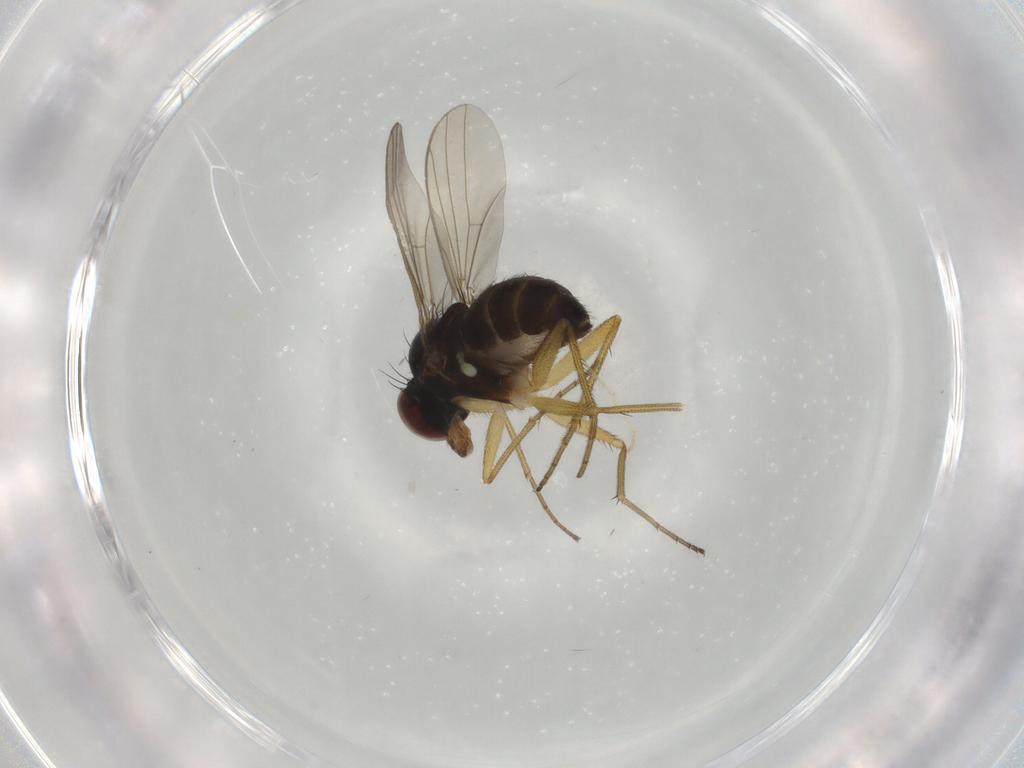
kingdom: Animalia
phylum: Arthropoda
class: Insecta
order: Diptera
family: Dolichopodidae
